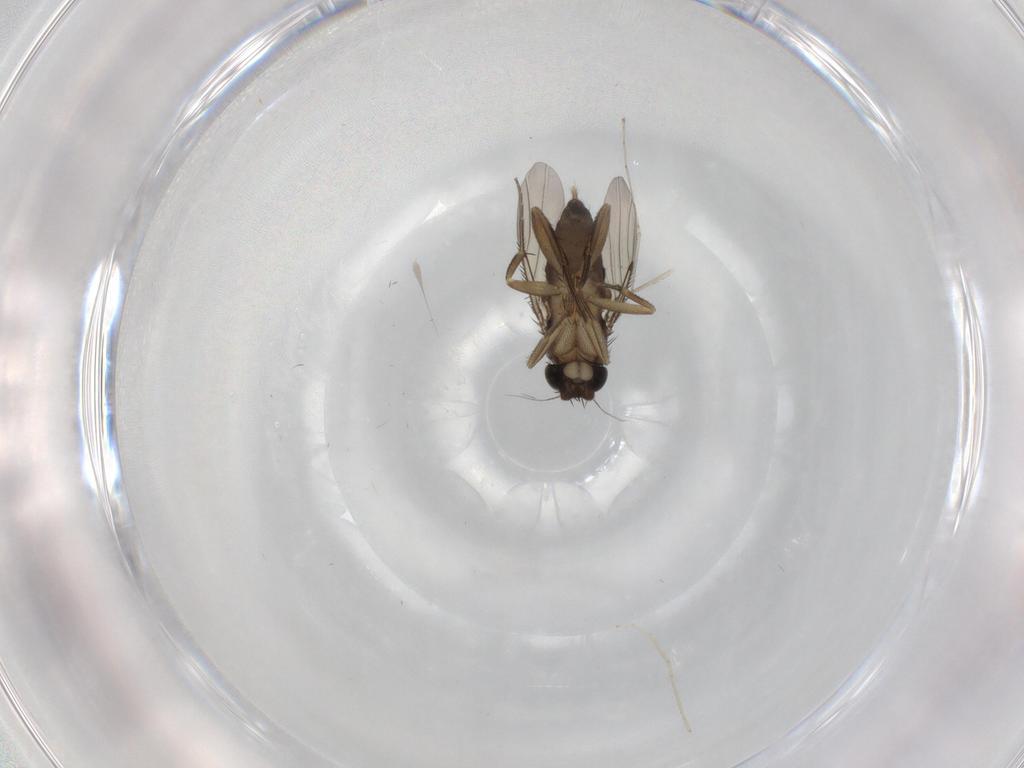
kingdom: Animalia
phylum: Arthropoda
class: Insecta
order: Diptera
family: Phoridae
